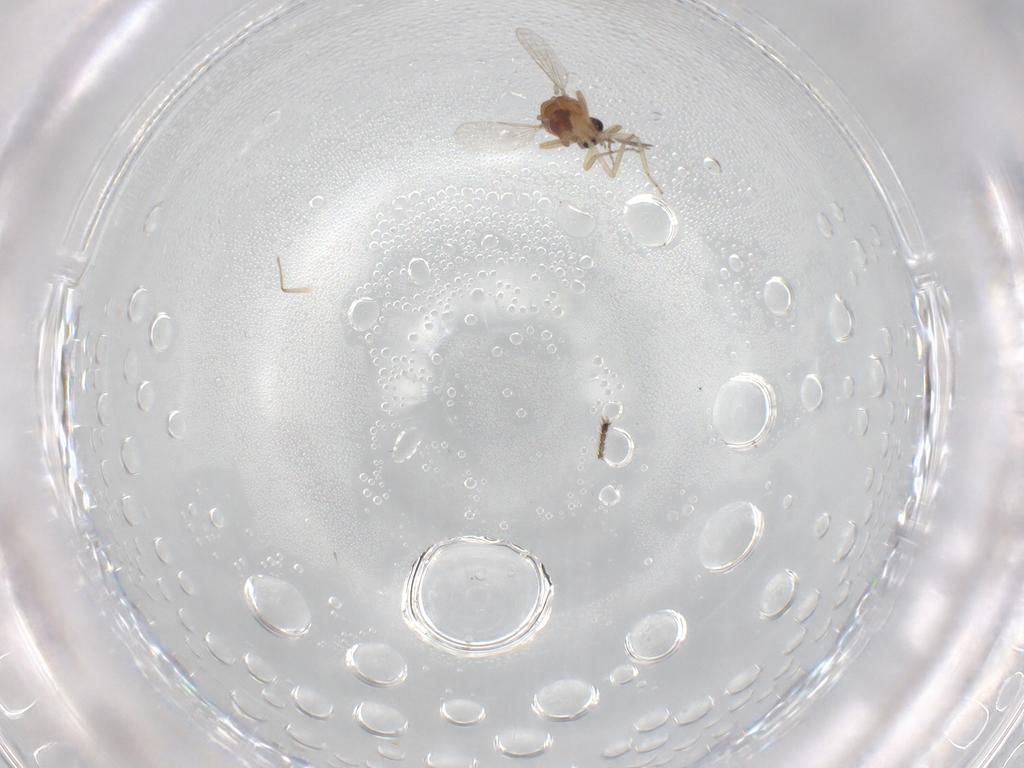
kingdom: Animalia
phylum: Arthropoda
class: Insecta
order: Diptera
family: Ceratopogonidae
